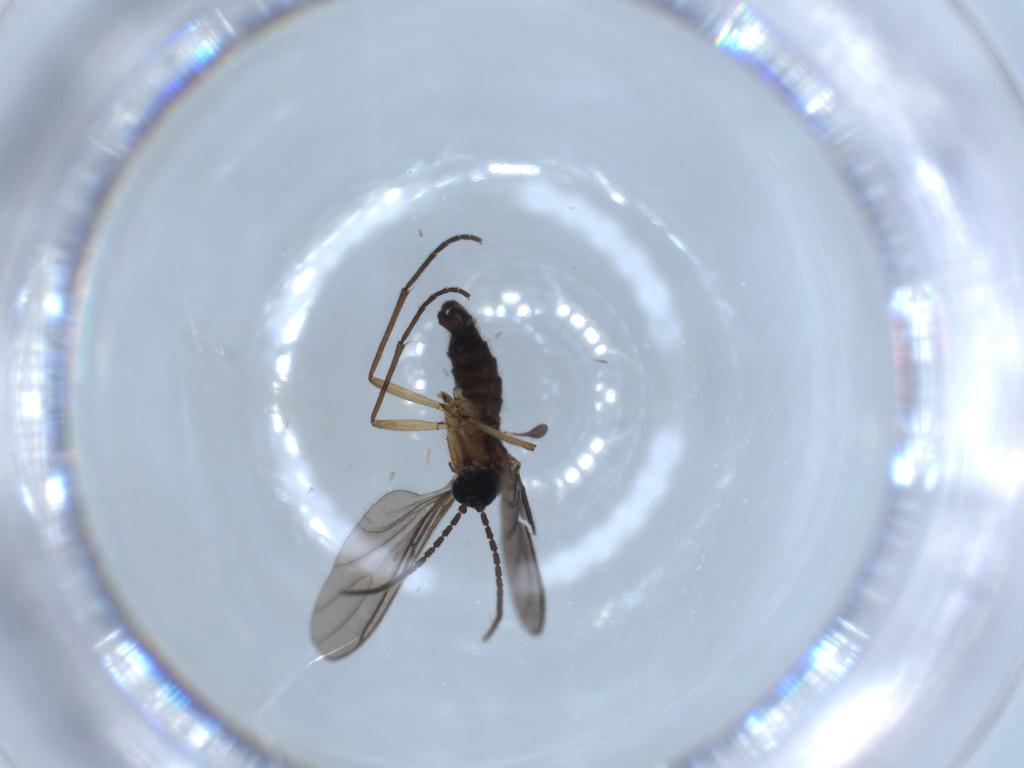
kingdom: Animalia
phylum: Arthropoda
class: Insecta
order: Diptera
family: Sciaridae
